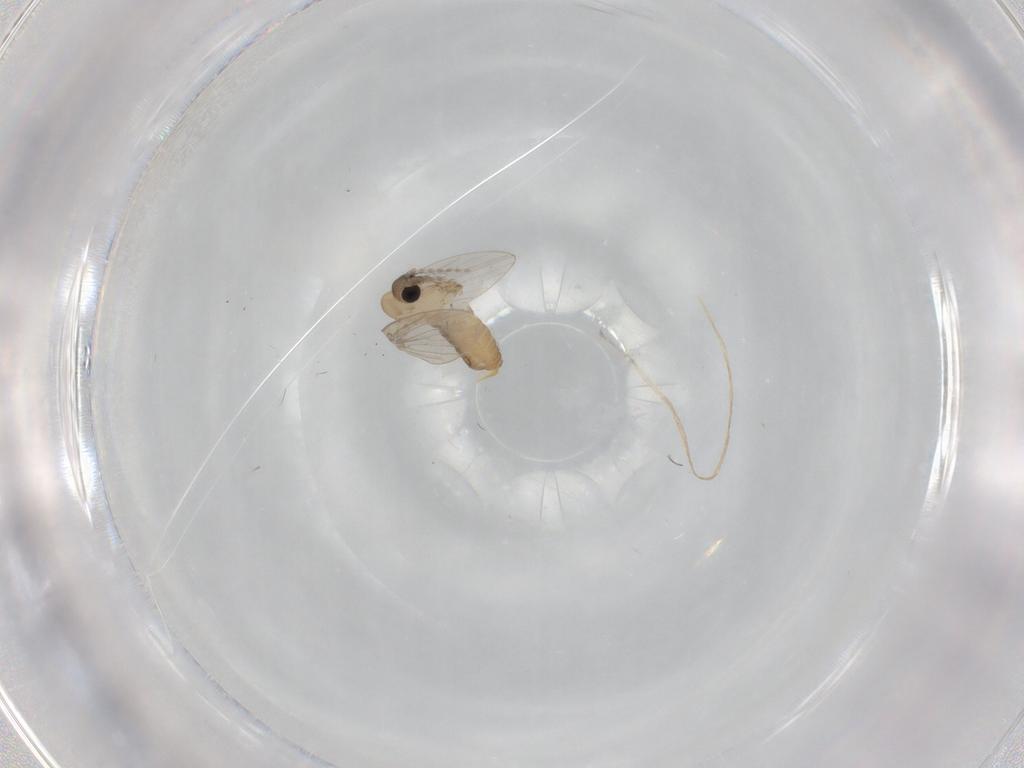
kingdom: Animalia
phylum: Arthropoda
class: Insecta
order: Diptera
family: Psychodidae
